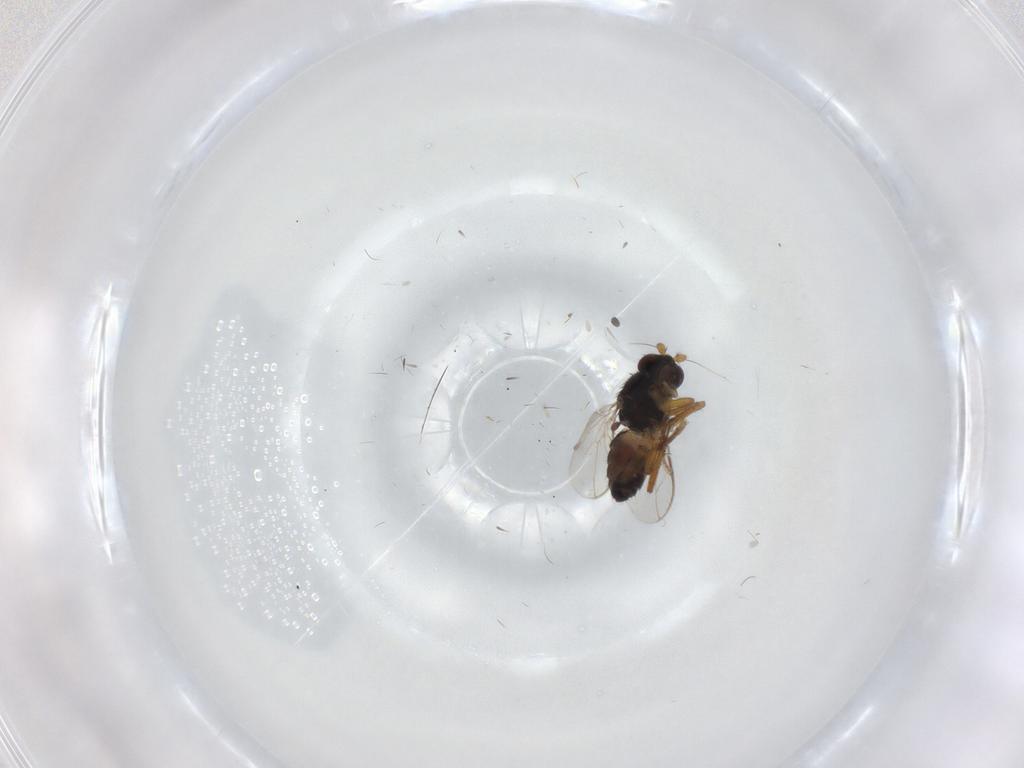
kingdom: Animalia
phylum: Arthropoda
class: Insecta
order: Diptera
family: Sphaeroceridae
